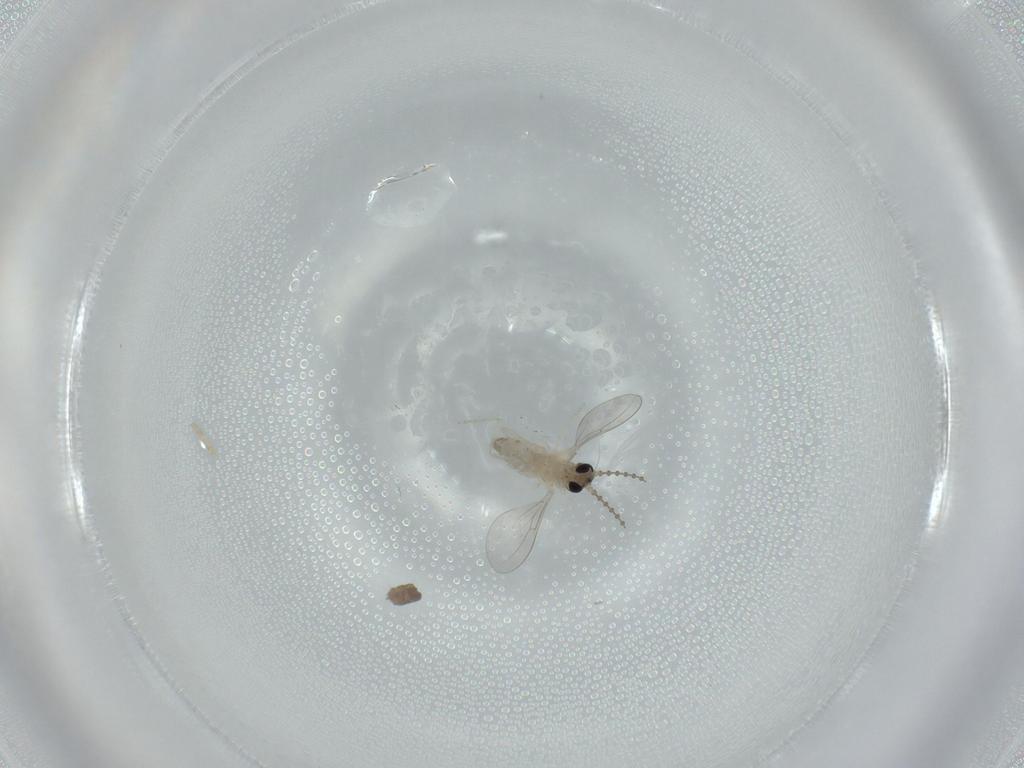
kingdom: Animalia
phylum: Arthropoda
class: Insecta
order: Diptera
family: Cecidomyiidae
